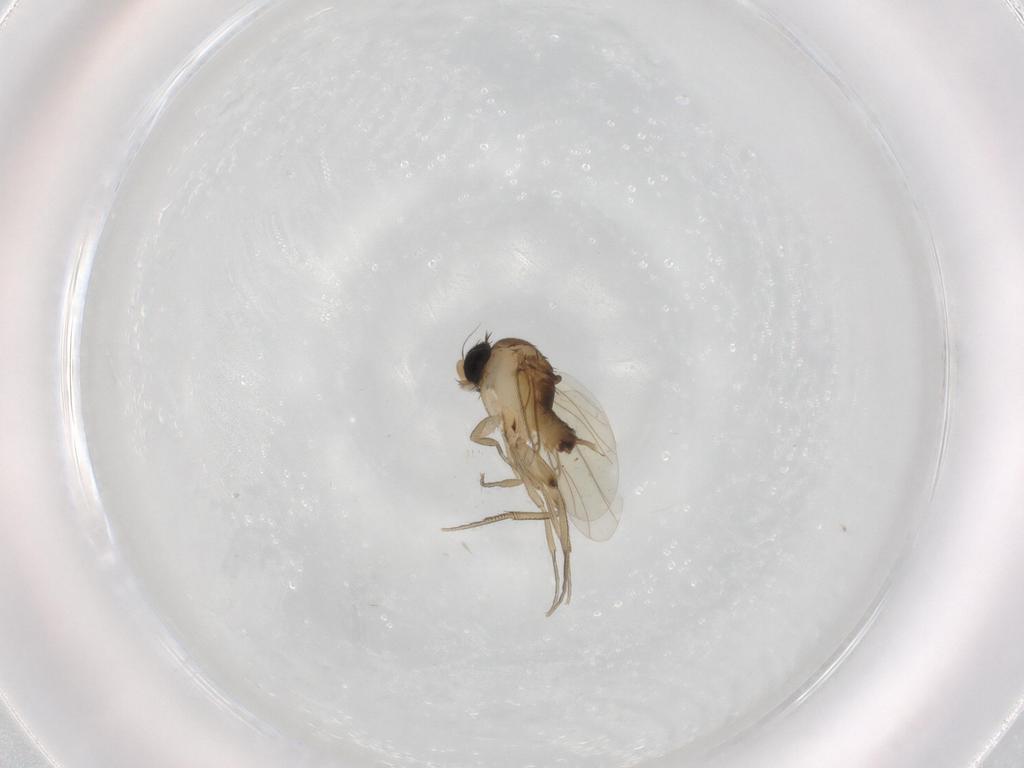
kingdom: Animalia
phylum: Arthropoda
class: Insecta
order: Diptera
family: Phoridae
